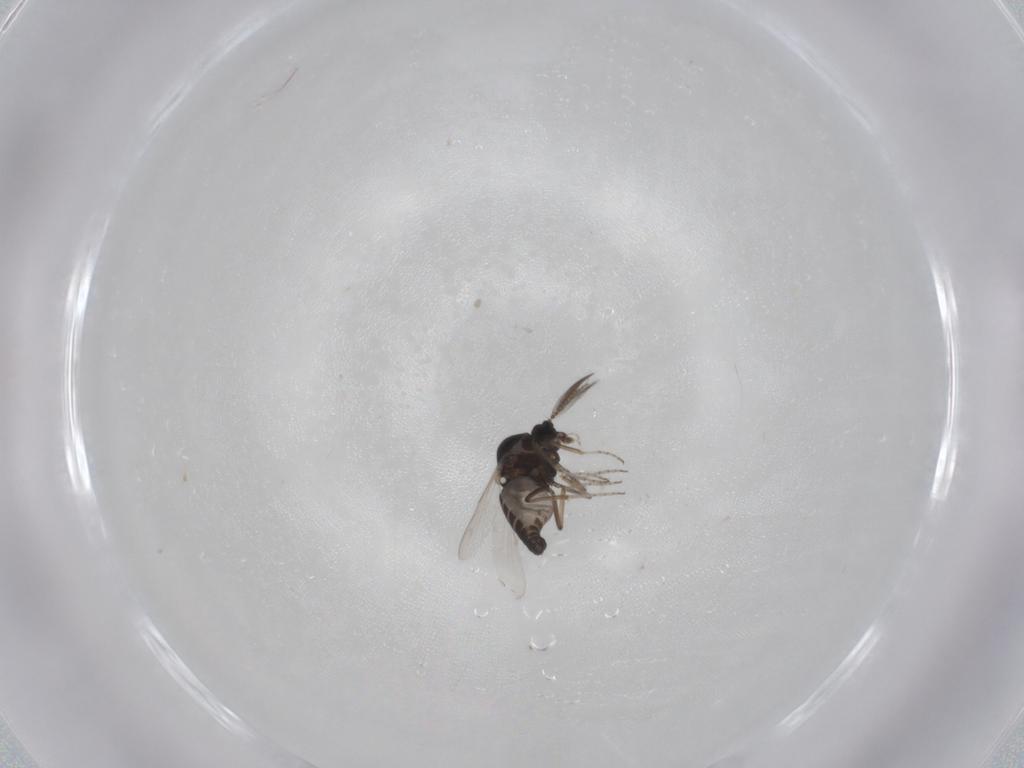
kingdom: Animalia
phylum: Arthropoda
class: Insecta
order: Diptera
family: Ceratopogonidae
